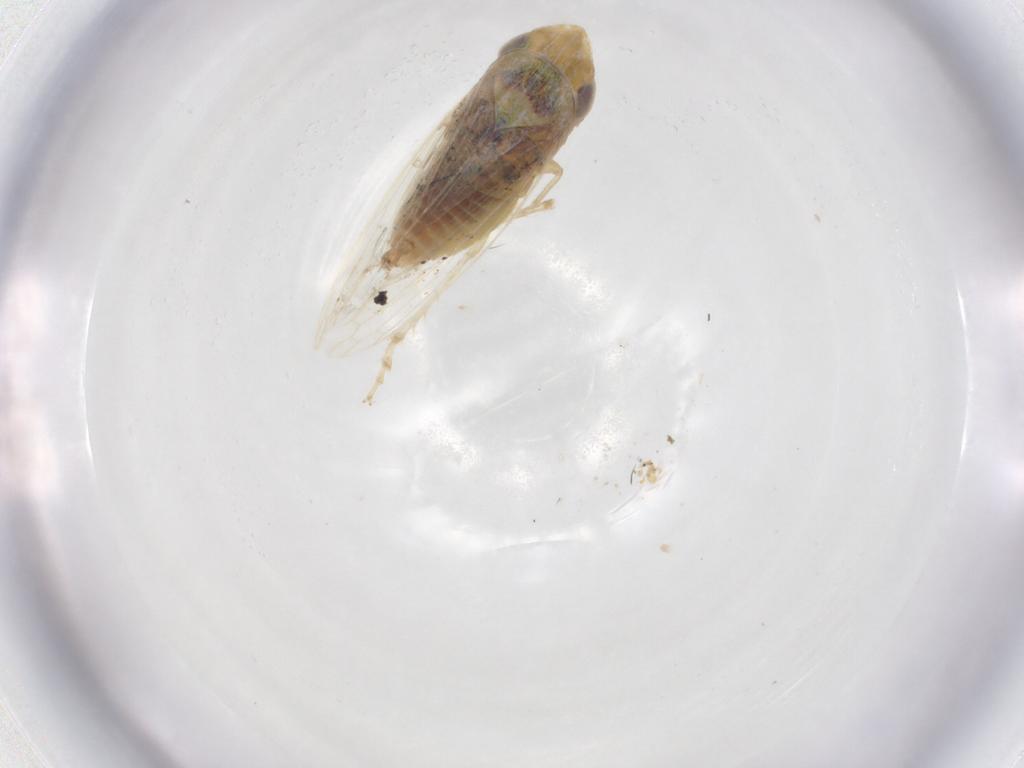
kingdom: Animalia
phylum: Arthropoda
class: Insecta
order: Hemiptera
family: Cicadellidae
